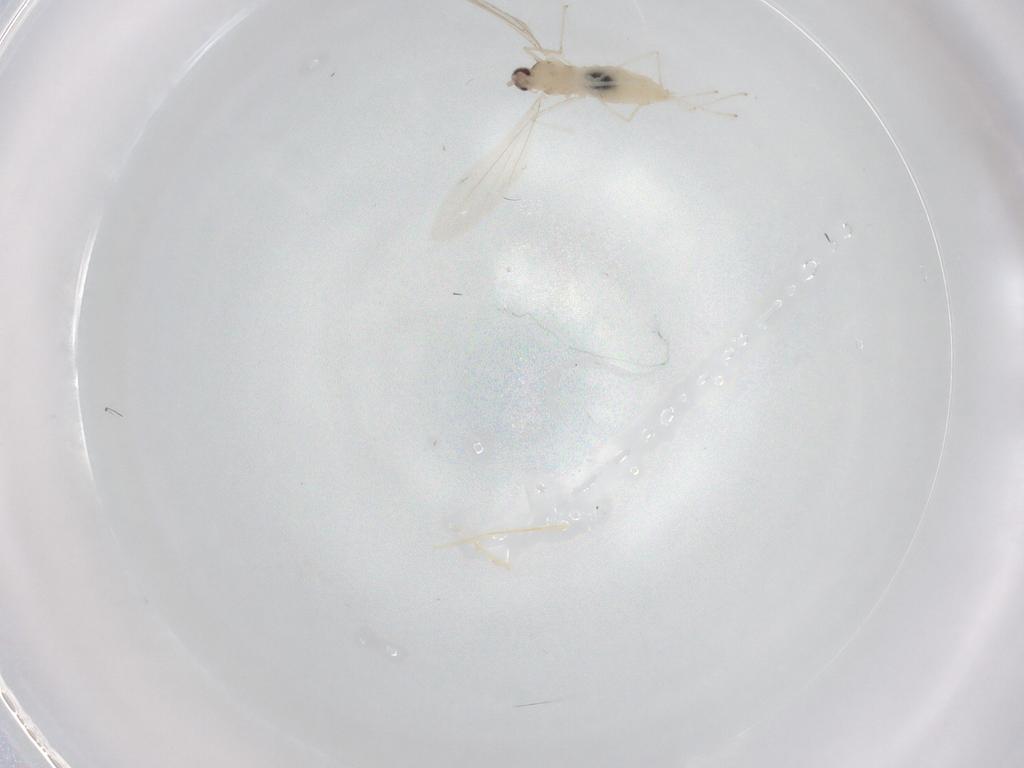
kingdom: Animalia
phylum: Arthropoda
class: Insecta
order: Diptera
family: Cecidomyiidae
